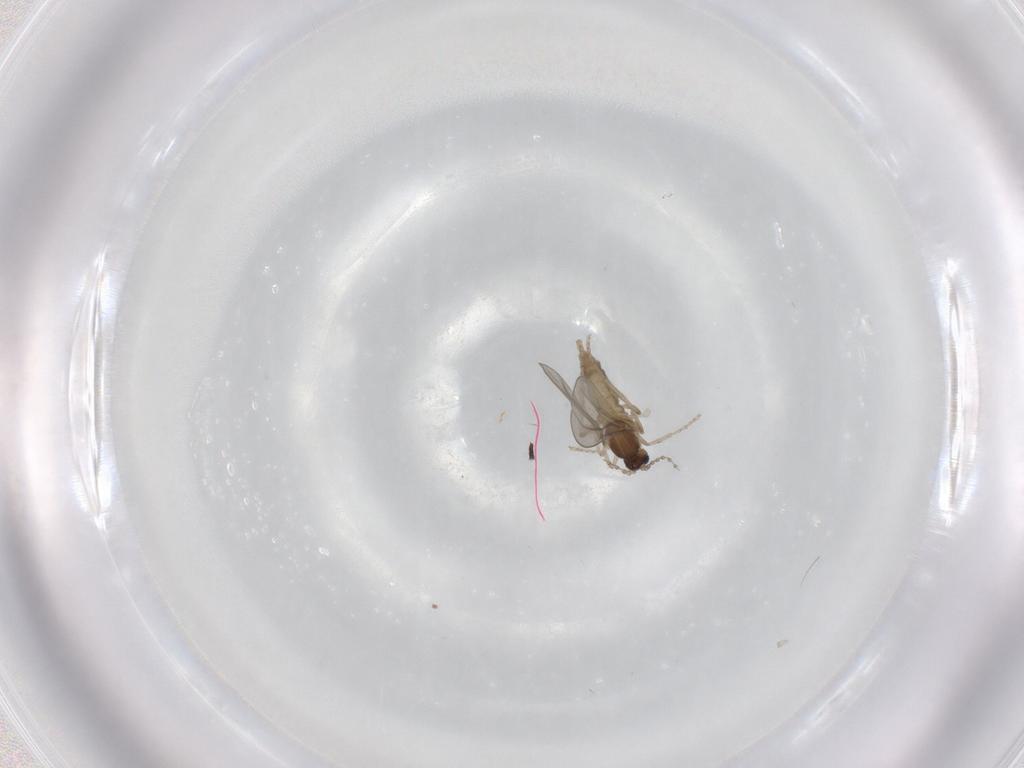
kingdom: Animalia
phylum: Arthropoda
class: Insecta
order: Diptera
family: Cecidomyiidae
